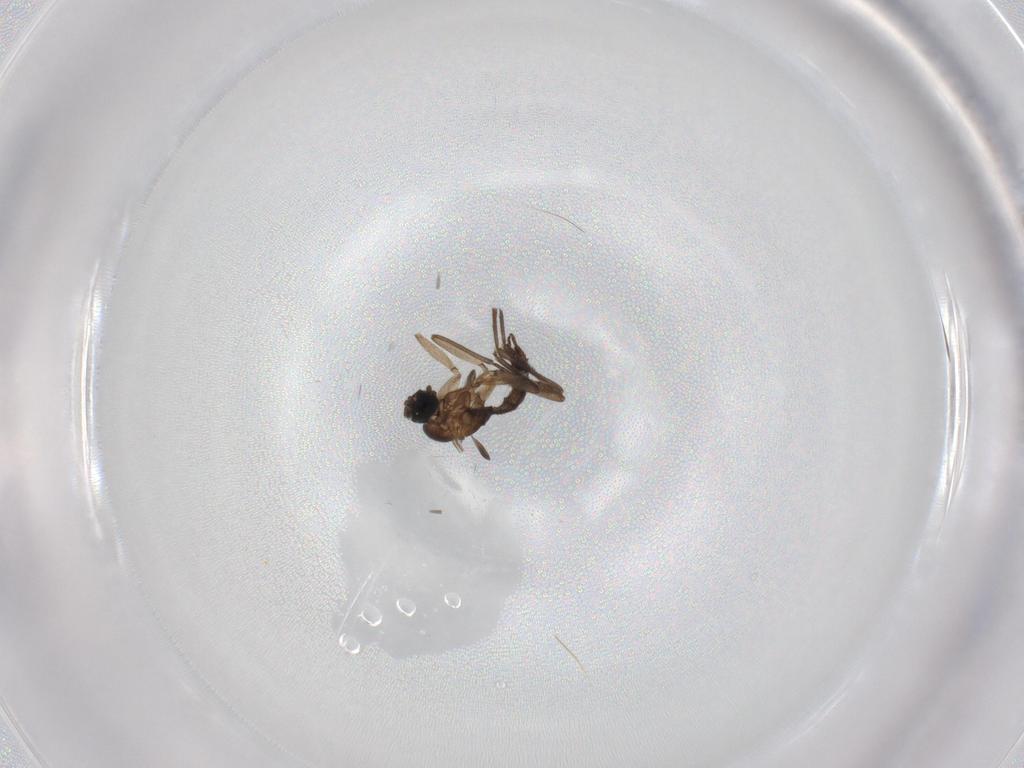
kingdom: Animalia
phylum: Arthropoda
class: Insecta
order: Diptera
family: Sciaridae
